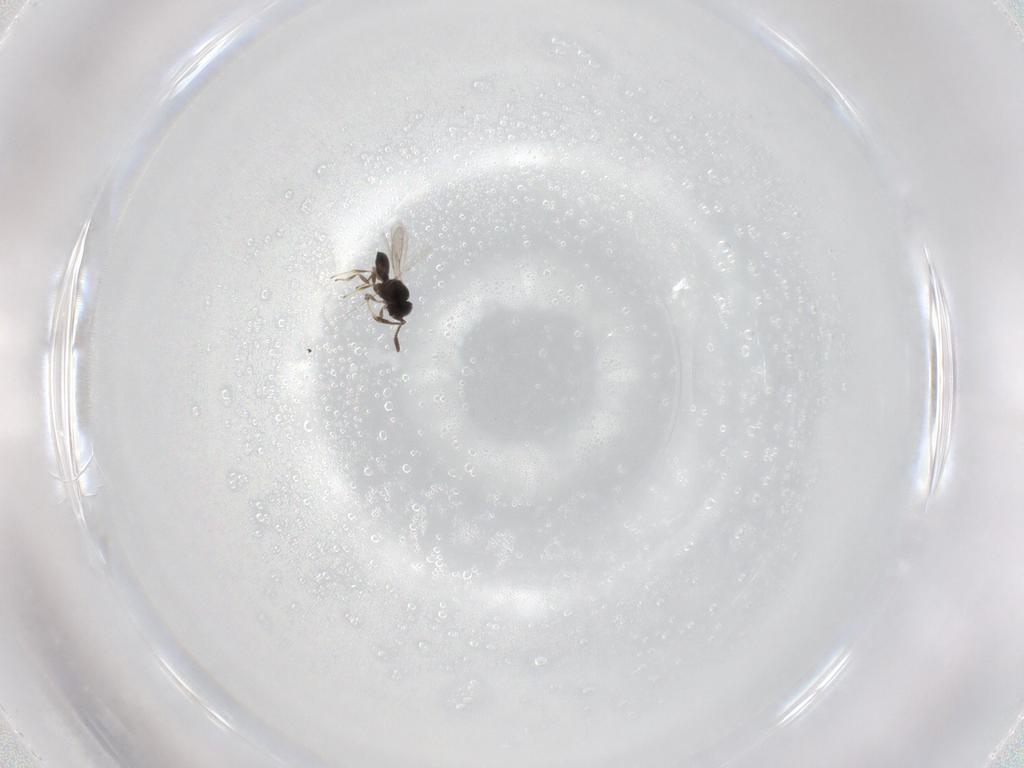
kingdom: Animalia
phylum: Arthropoda
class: Insecta
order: Hymenoptera
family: Scelionidae
